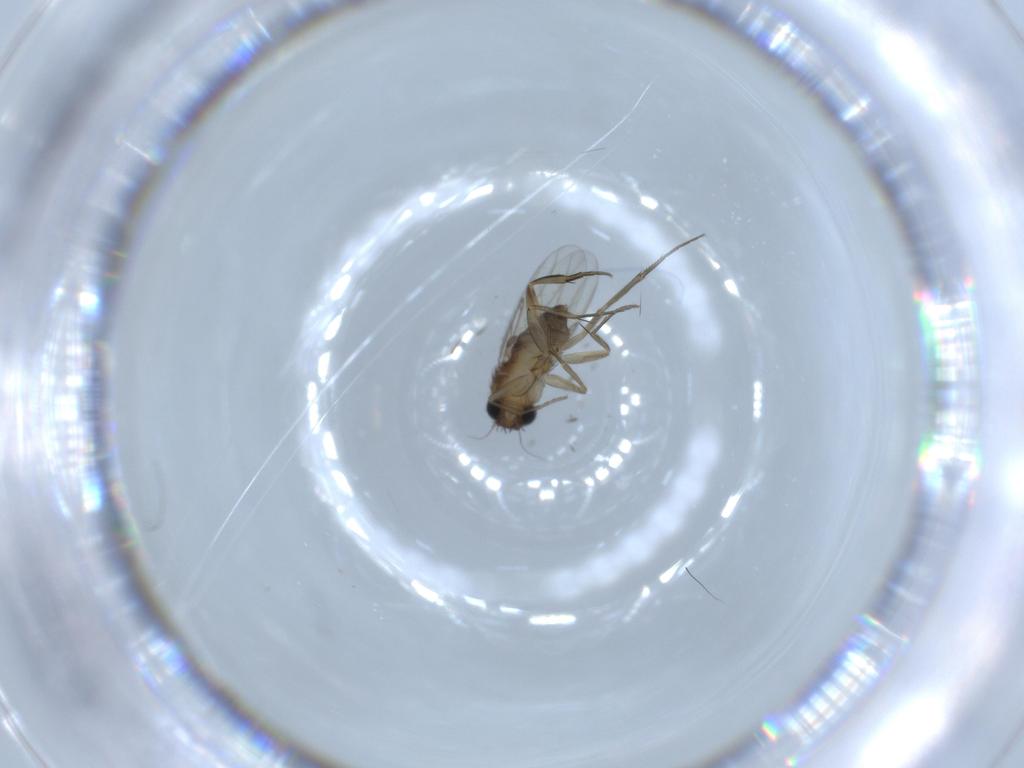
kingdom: Animalia
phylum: Arthropoda
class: Insecta
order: Diptera
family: Phoridae
